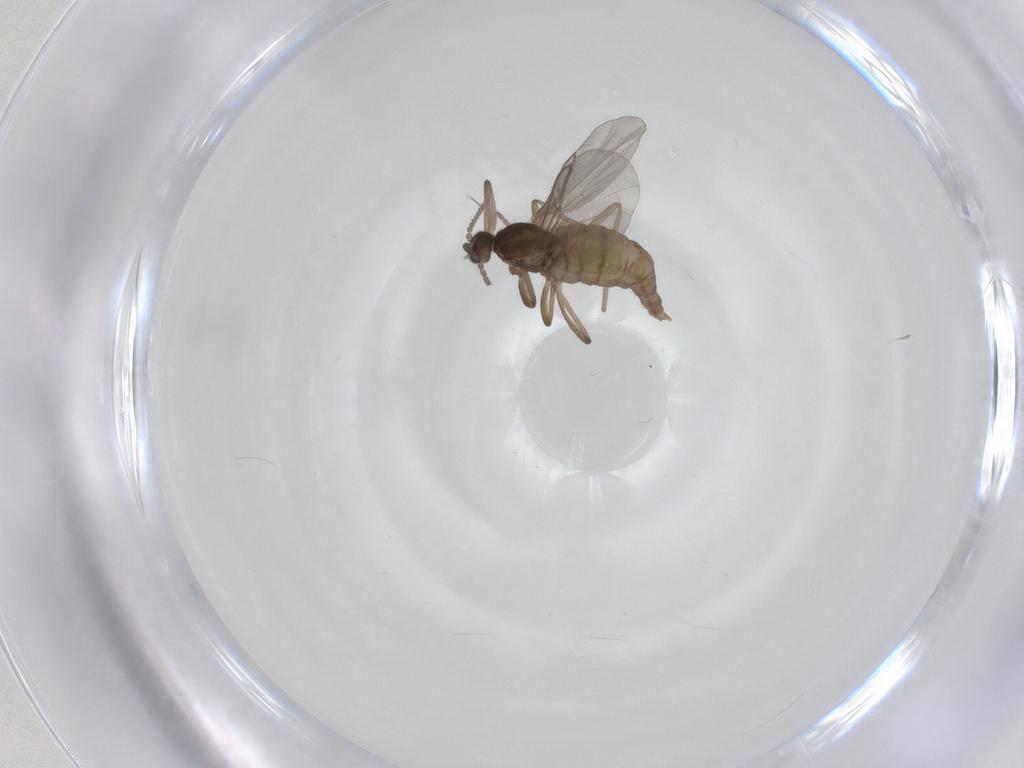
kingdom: Animalia
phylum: Arthropoda
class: Insecta
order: Diptera
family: Cecidomyiidae
